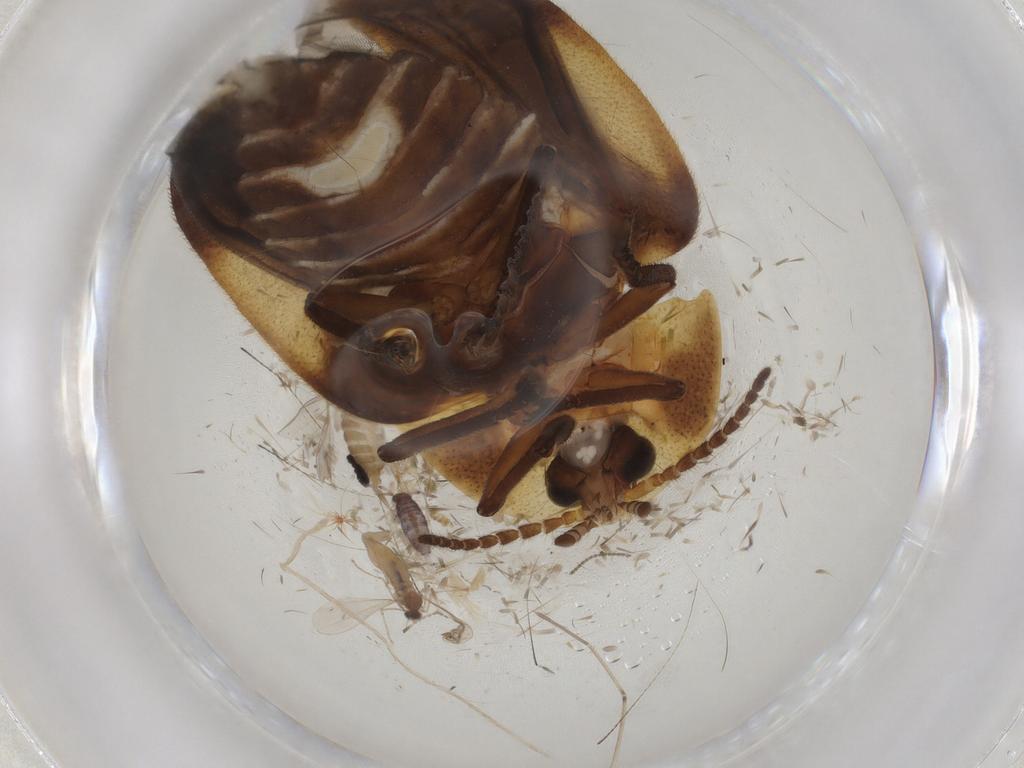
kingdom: Animalia
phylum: Arthropoda
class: Insecta
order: Coleoptera
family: Lampyridae
